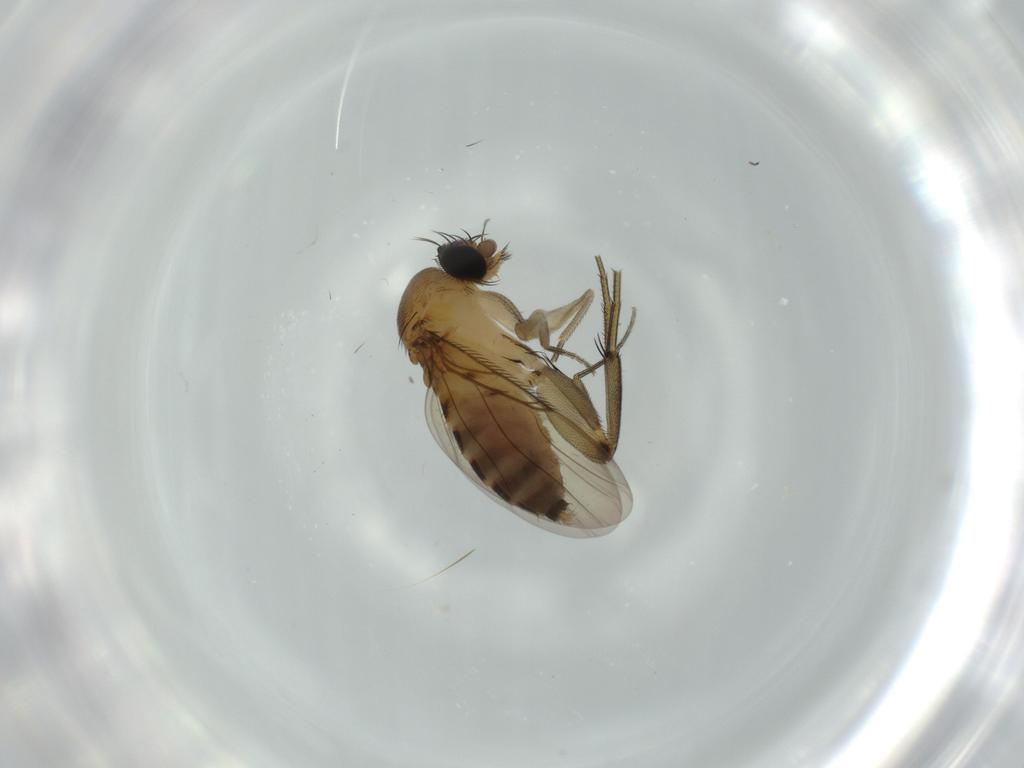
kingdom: Animalia
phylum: Arthropoda
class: Insecta
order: Diptera
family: Phoridae
